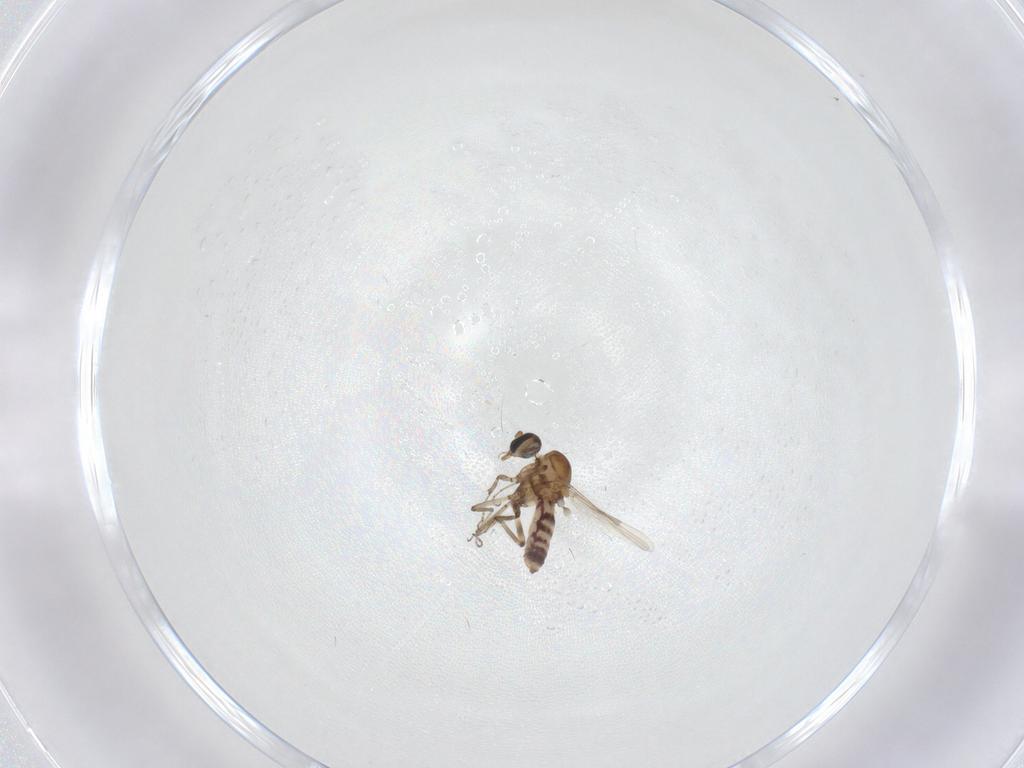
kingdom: Animalia
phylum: Arthropoda
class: Insecta
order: Diptera
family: Ceratopogonidae
